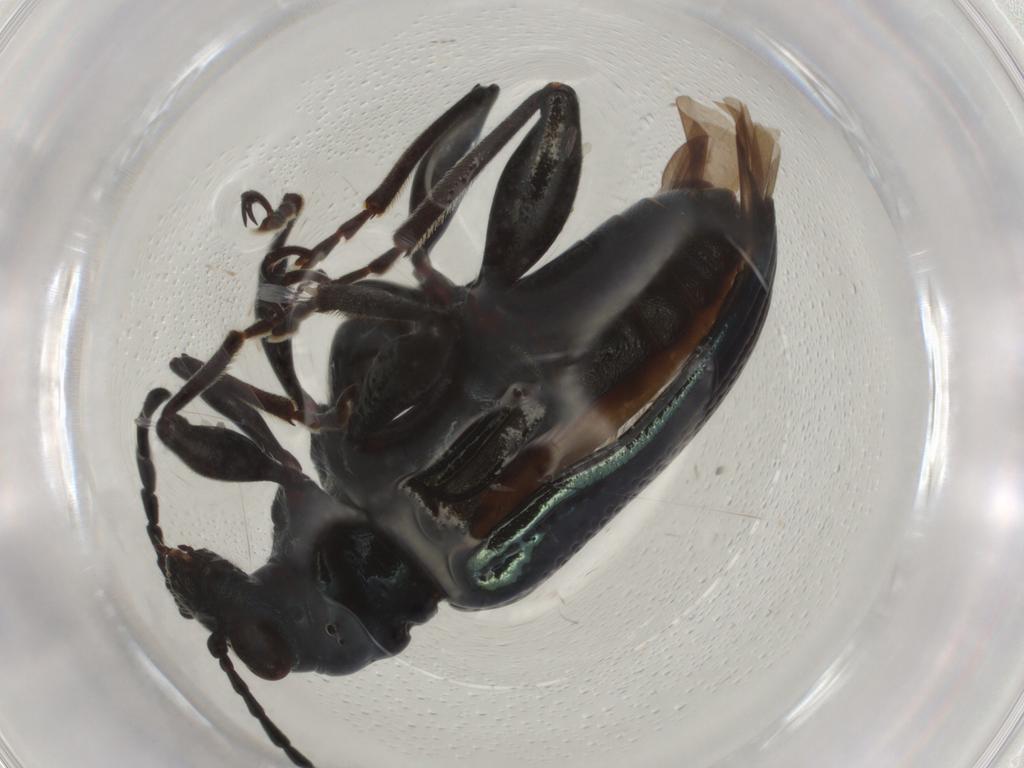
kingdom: Animalia
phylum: Arthropoda
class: Insecta
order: Coleoptera
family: Chrysomelidae
